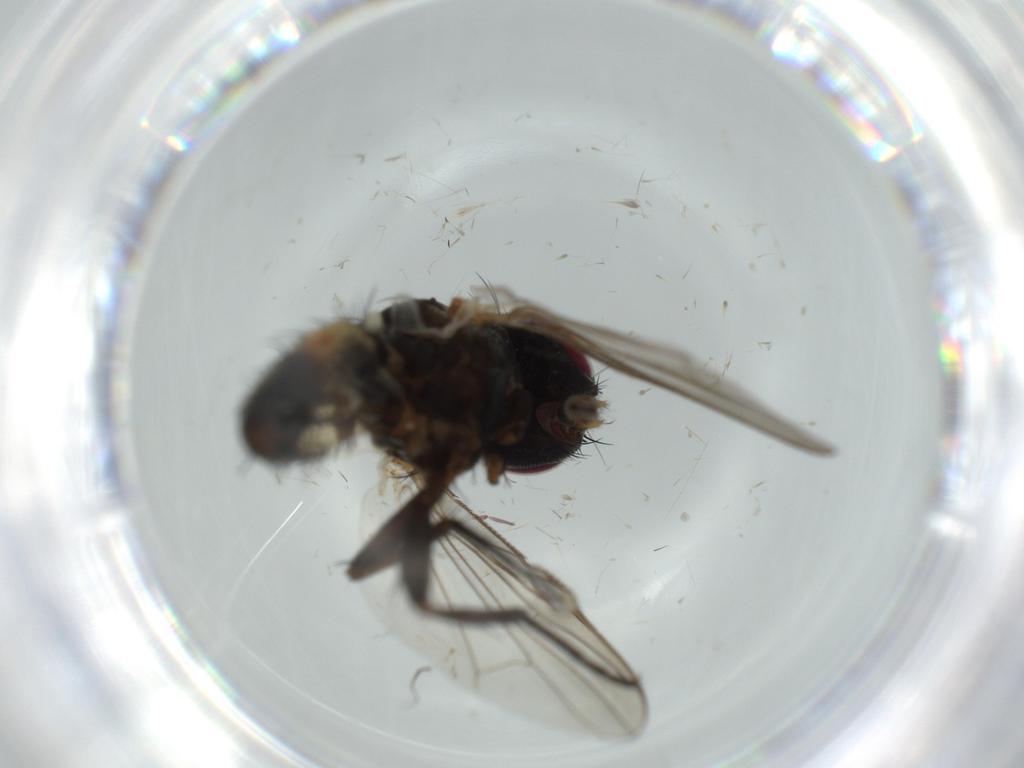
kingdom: Animalia
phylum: Arthropoda
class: Insecta
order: Diptera
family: Fannia
